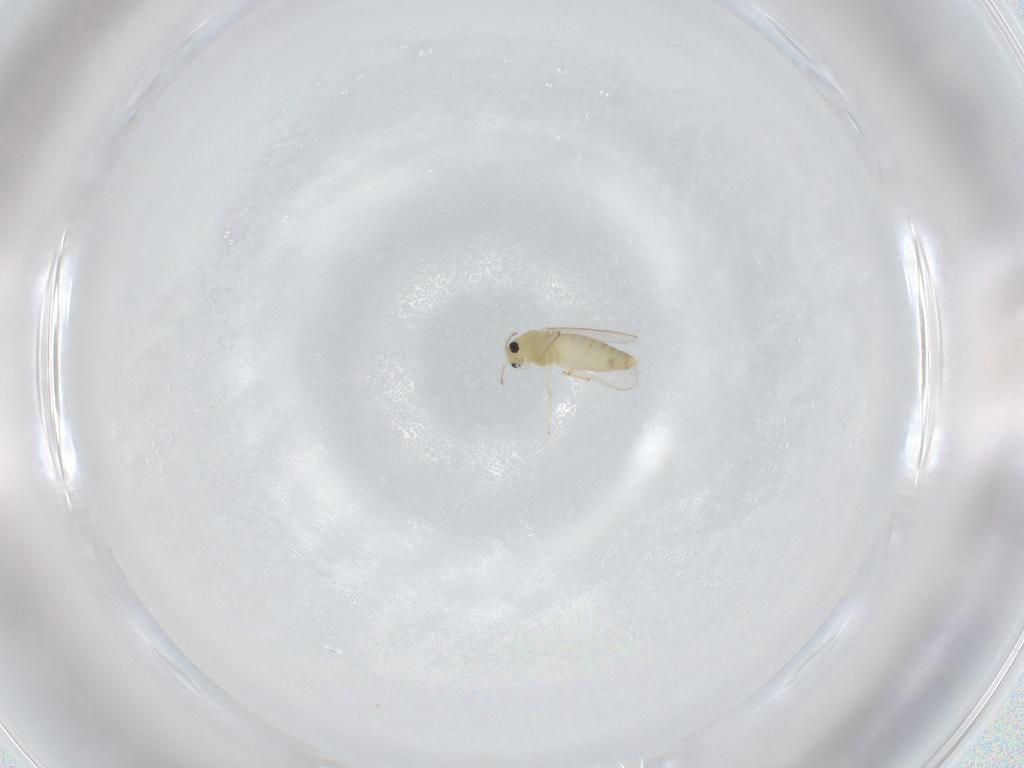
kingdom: Animalia
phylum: Arthropoda
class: Insecta
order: Diptera
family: Chironomidae
